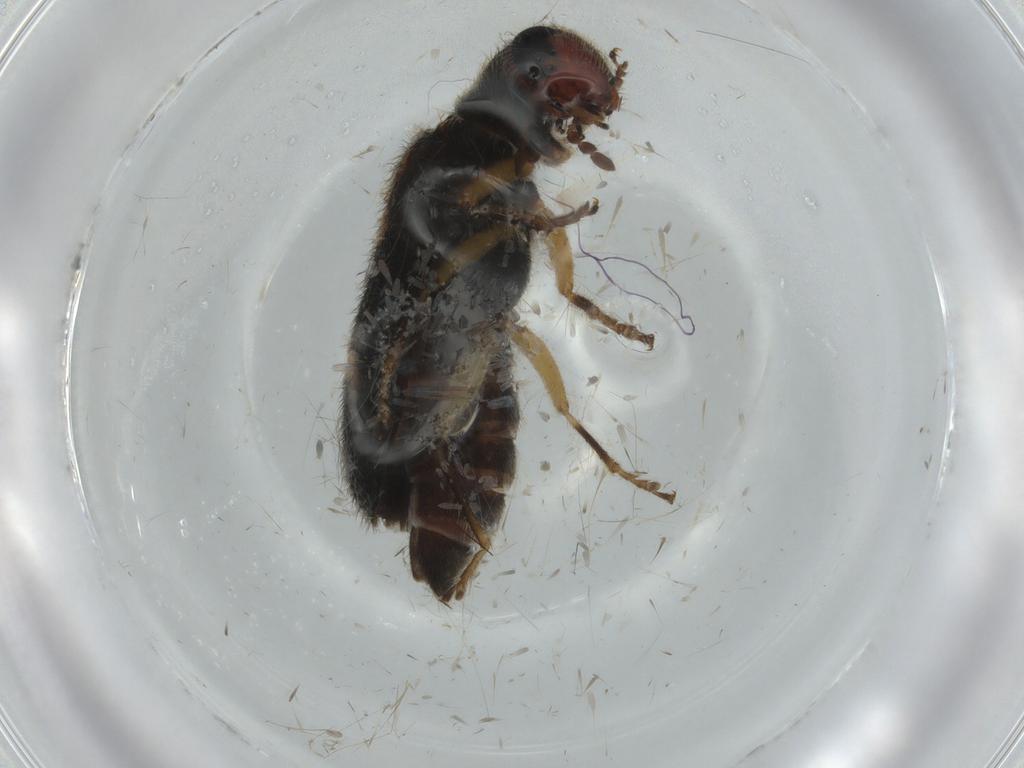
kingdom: Animalia
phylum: Arthropoda
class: Insecta
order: Coleoptera
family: Cleridae
